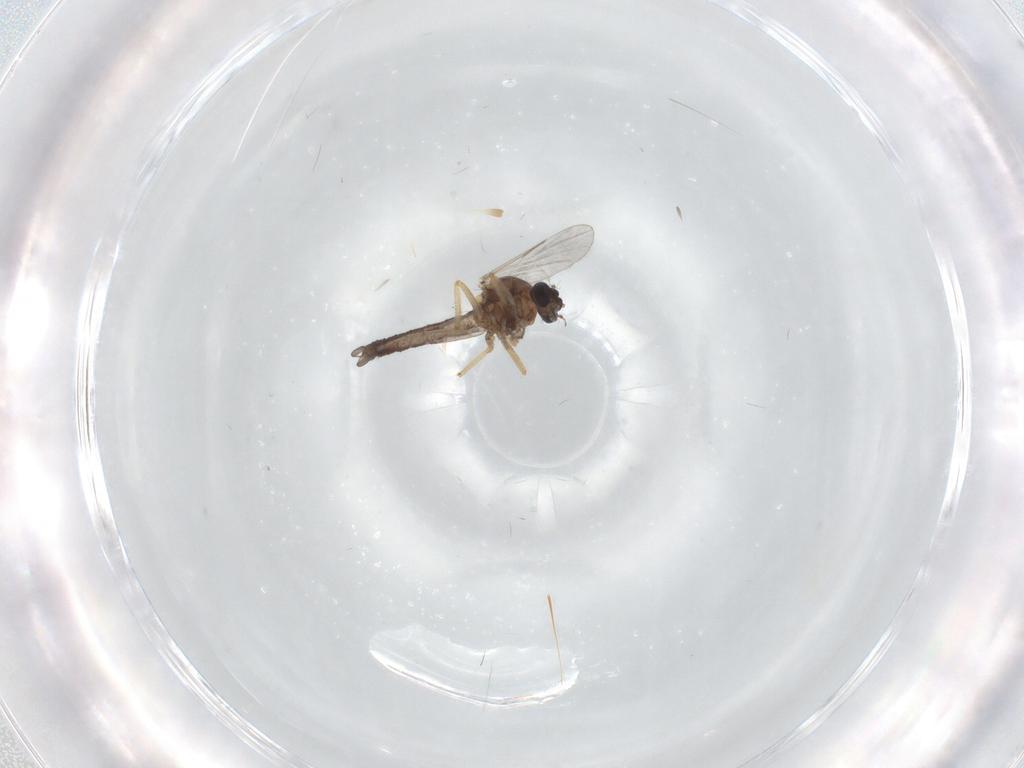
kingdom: Animalia
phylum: Arthropoda
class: Insecta
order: Diptera
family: Ceratopogonidae
